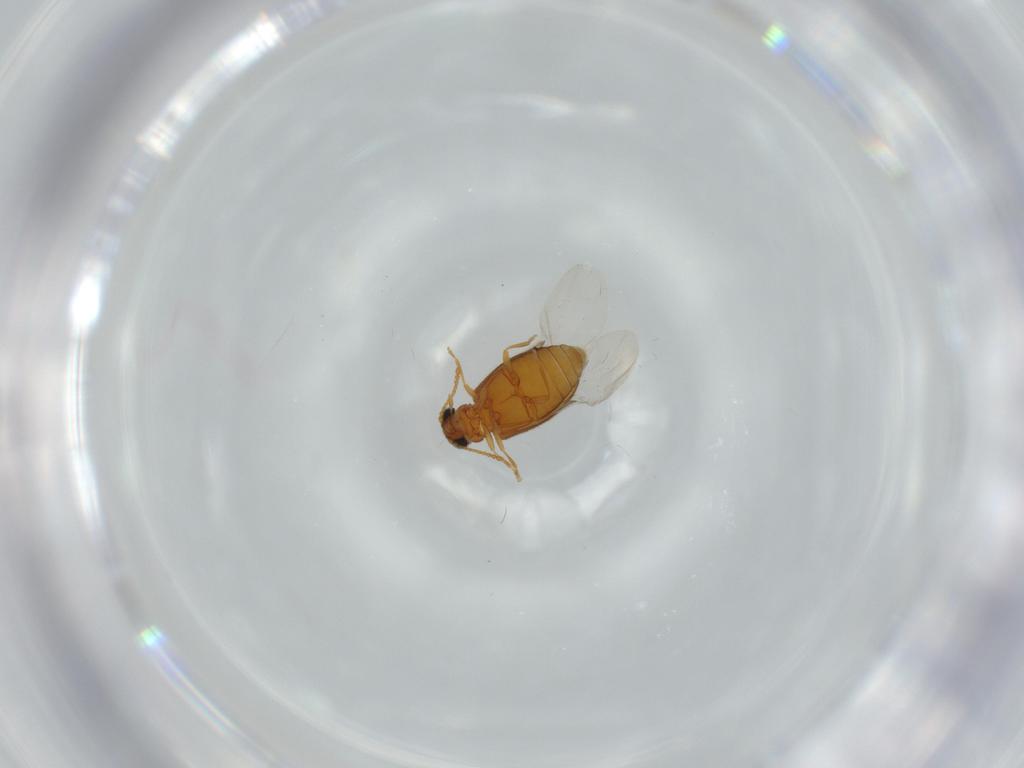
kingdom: Animalia
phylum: Arthropoda
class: Insecta
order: Coleoptera
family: Aderidae
